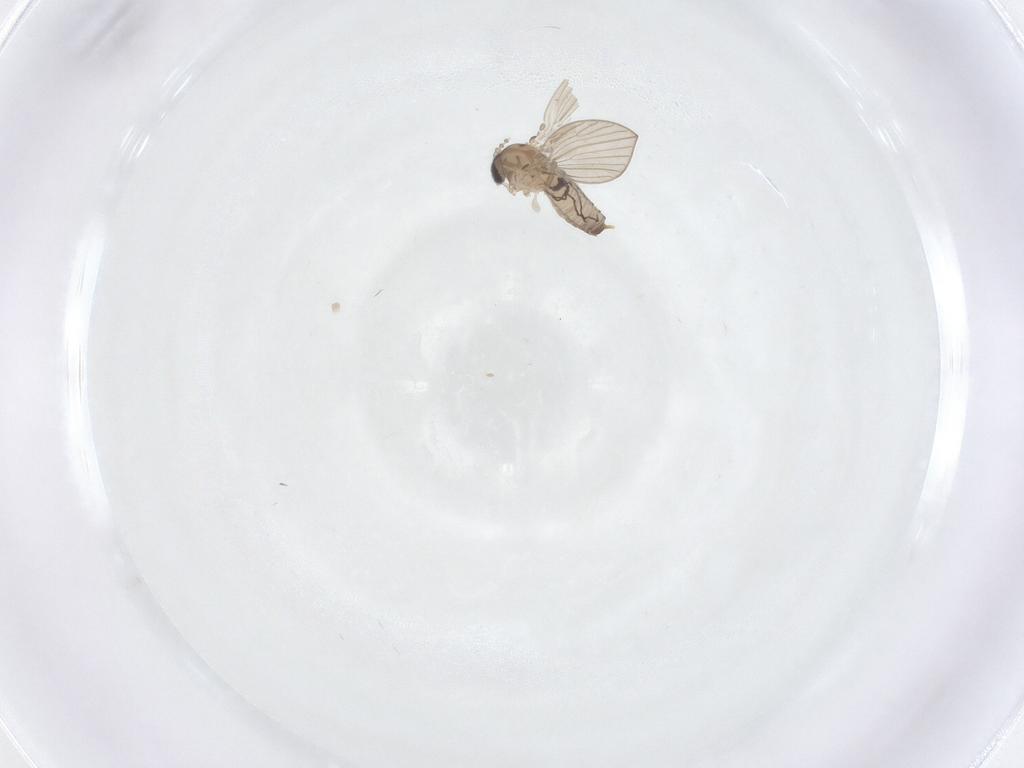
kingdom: Animalia
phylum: Arthropoda
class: Insecta
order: Diptera
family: Psychodidae
